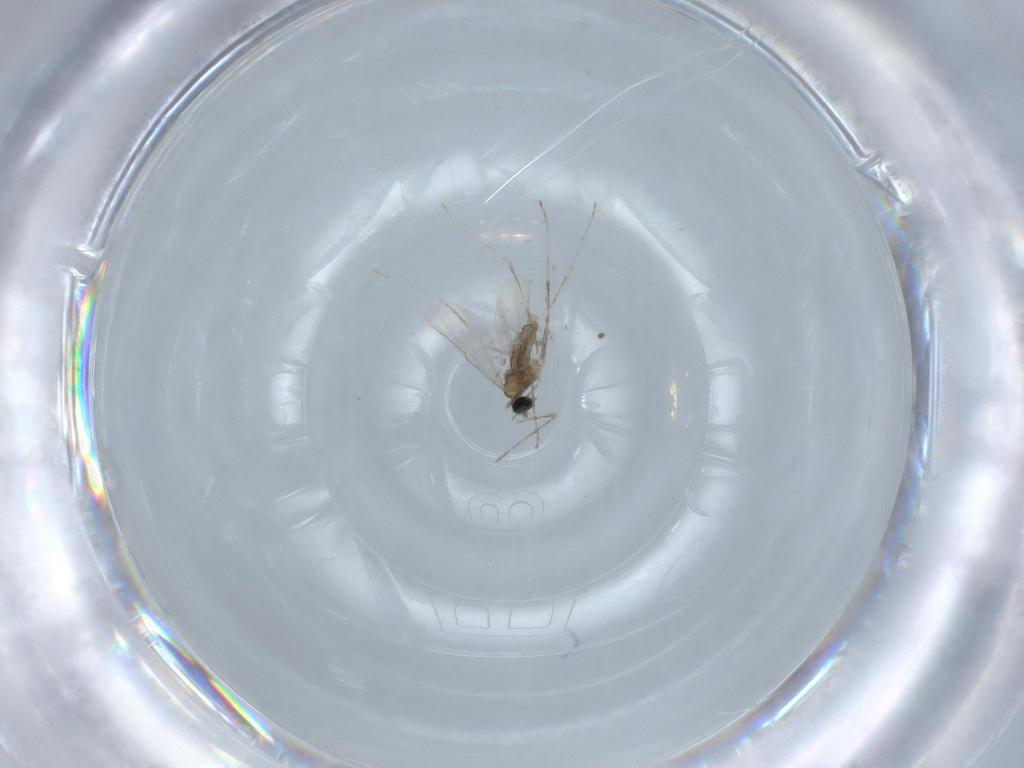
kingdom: Animalia
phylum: Arthropoda
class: Insecta
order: Diptera
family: Cecidomyiidae
